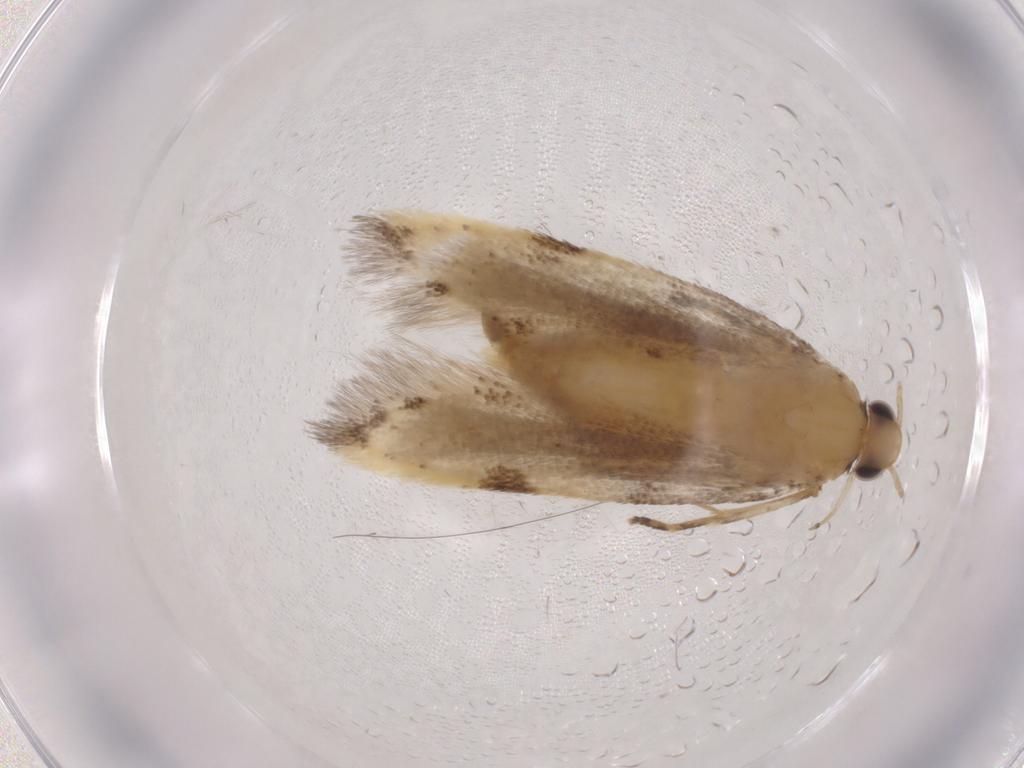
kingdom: Animalia
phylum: Arthropoda
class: Insecta
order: Lepidoptera
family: Autostichidae
